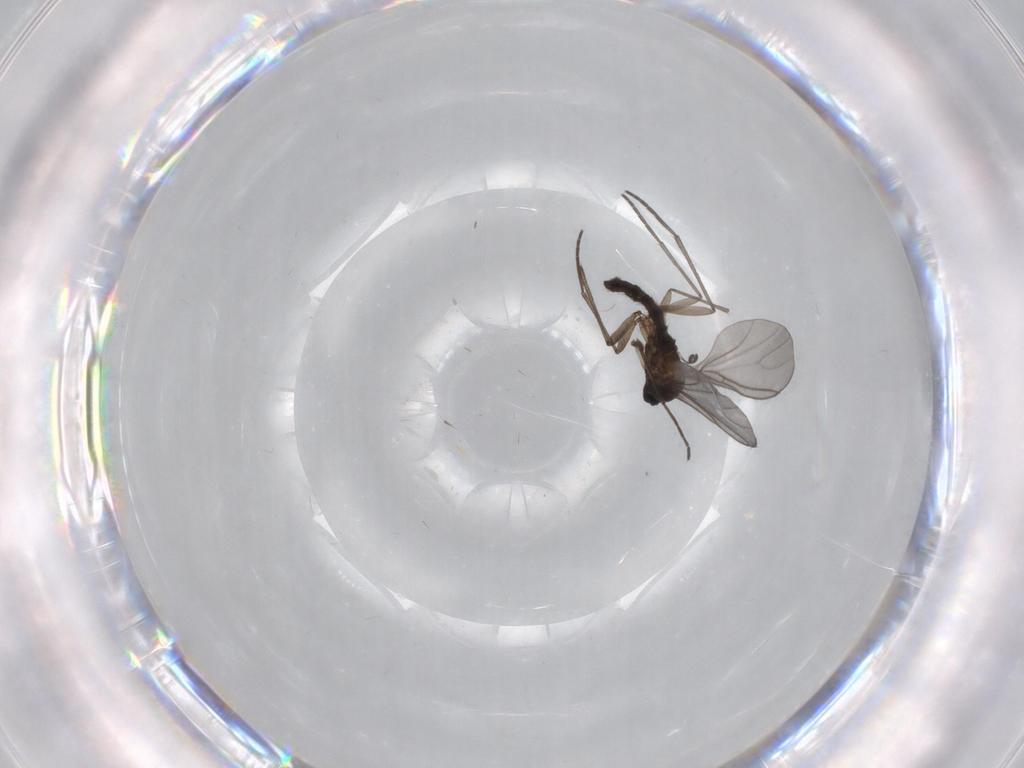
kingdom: Animalia
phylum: Arthropoda
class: Insecta
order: Diptera
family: Sciaridae
